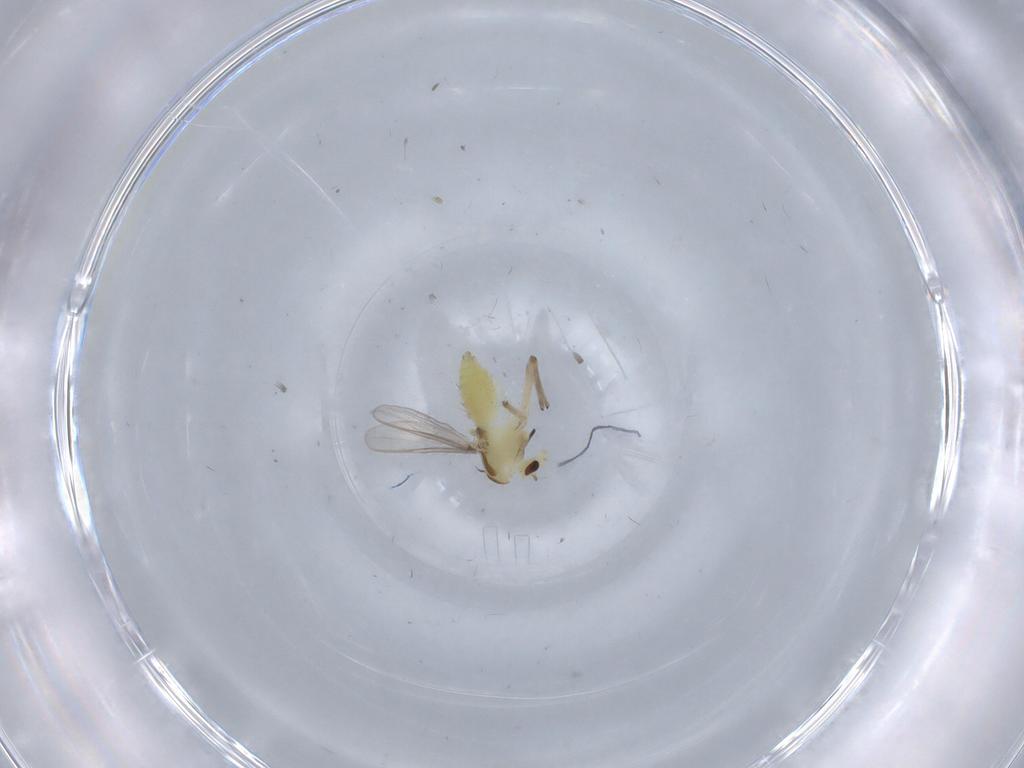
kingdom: Animalia
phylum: Arthropoda
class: Insecta
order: Diptera
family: Chironomidae
